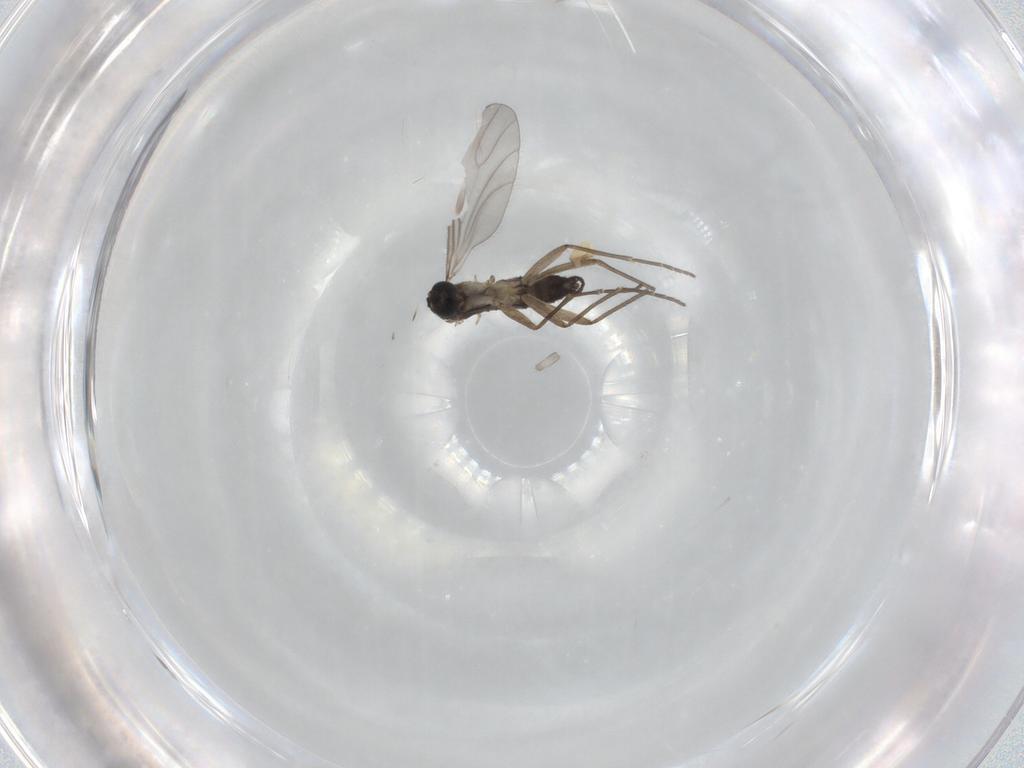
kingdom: Animalia
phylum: Arthropoda
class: Insecta
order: Diptera
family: Sciaridae
